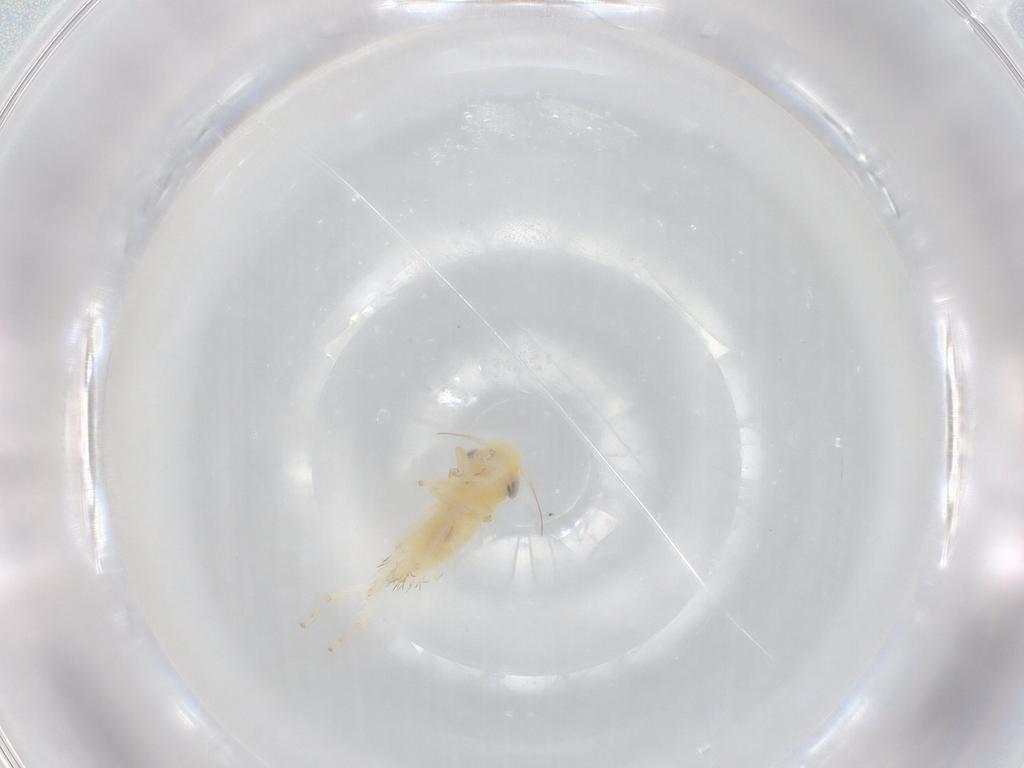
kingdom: Animalia
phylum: Arthropoda
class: Insecta
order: Hemiptera
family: Cicadellidae
